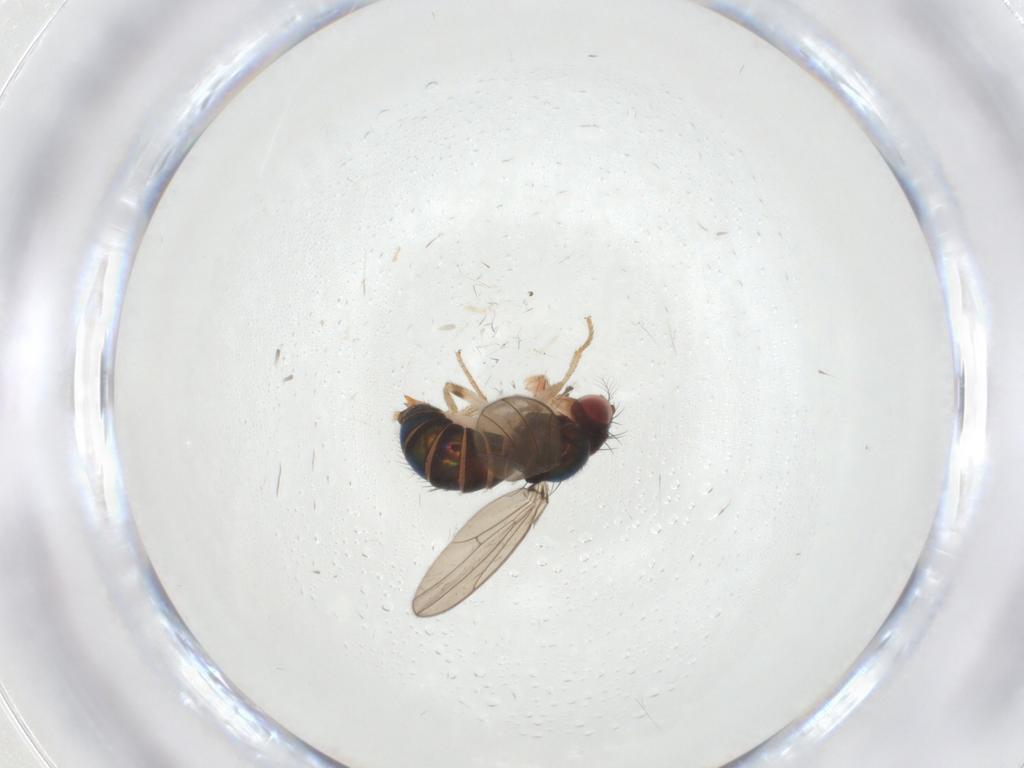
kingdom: Animalia
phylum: Arthropoda
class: Insecta
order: Diptera
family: Drosophilidae
